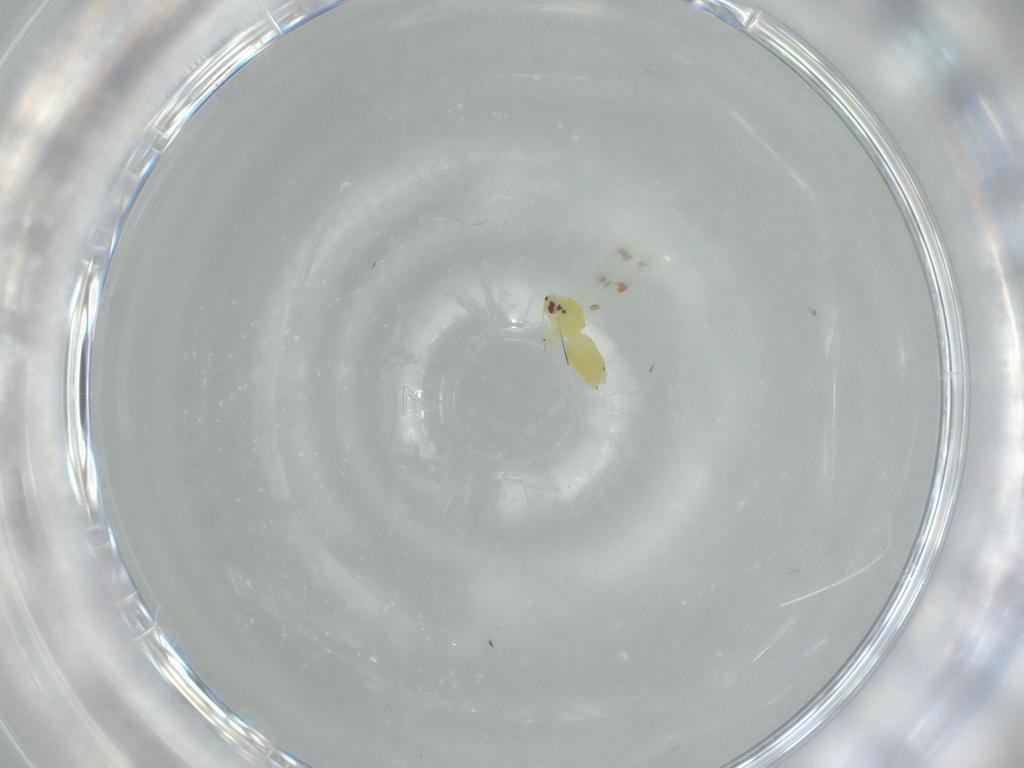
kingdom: Animalia
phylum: Arthropoda
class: Insecta
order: Hemiptera
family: Aleyrodidae
